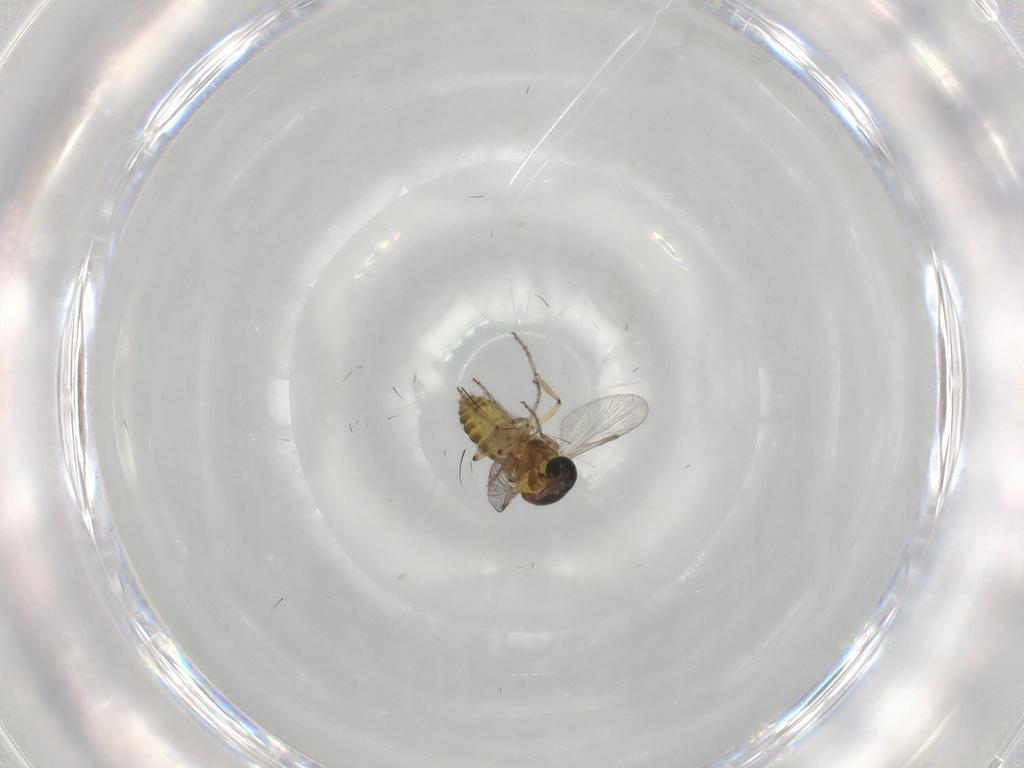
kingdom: Animalia
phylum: Arthropoda
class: Insecta
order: Diptera
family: Ceratopogonidae
